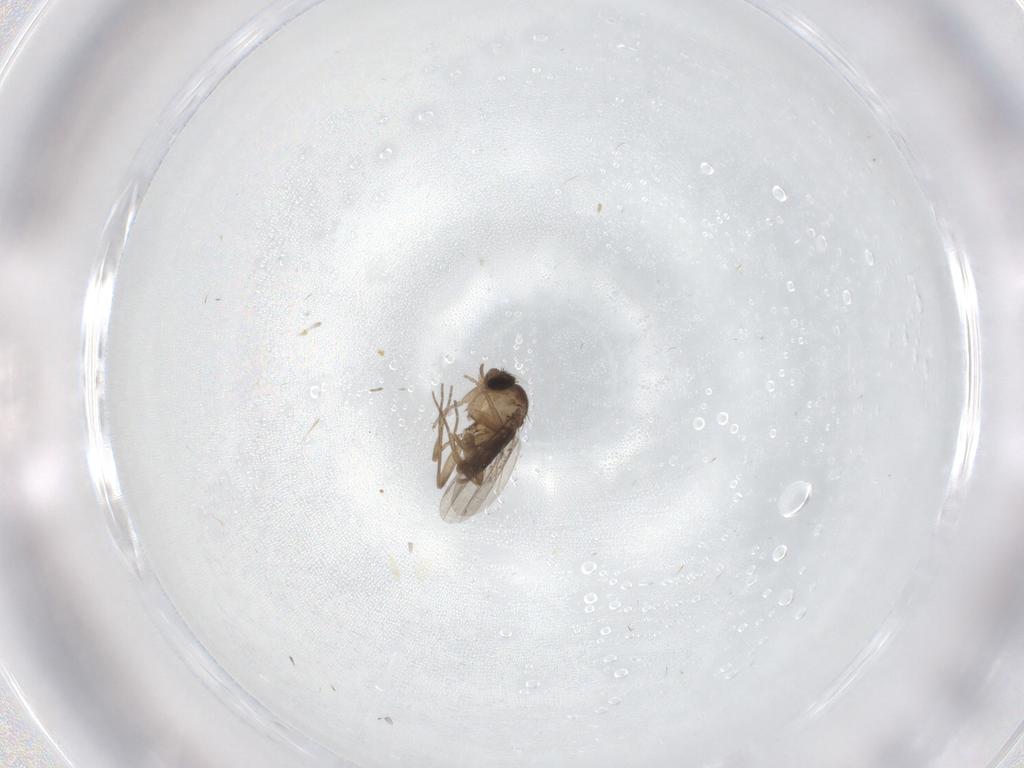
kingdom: Animalia
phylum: Arthropoda
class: Insecta
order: Diptera
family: Phoridae
